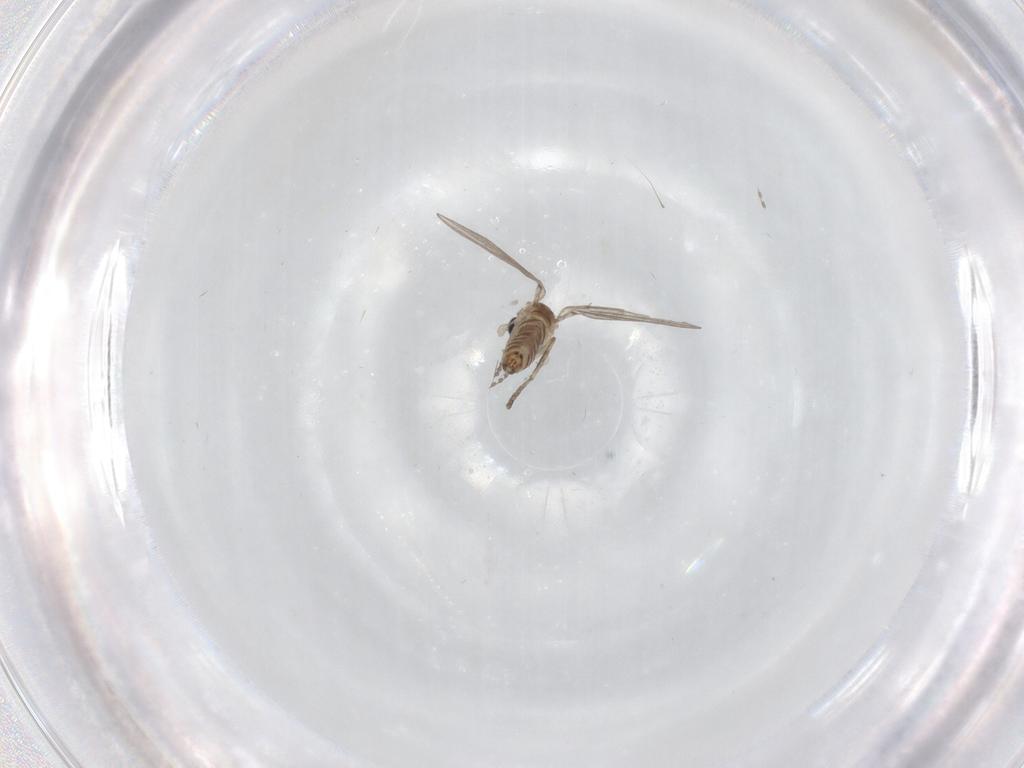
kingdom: Animalia
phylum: Arthropoda
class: Insecta
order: Diptera
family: Psychodidae
